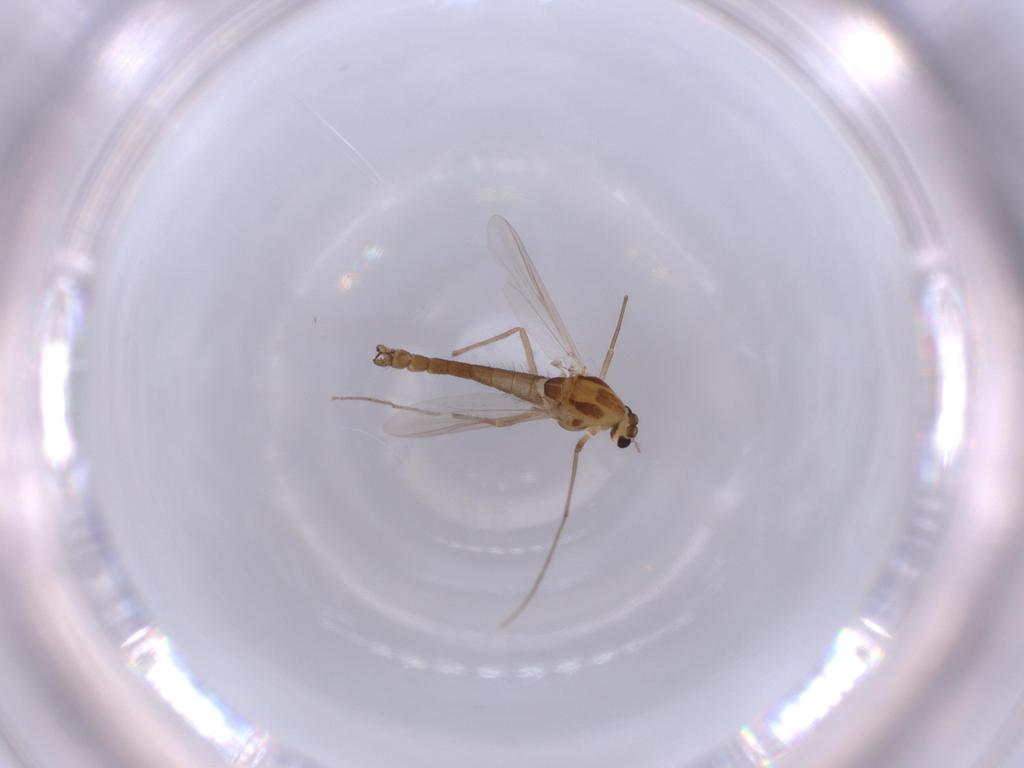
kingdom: Animalia
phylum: Arthropoda
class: Insecta
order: Diptera
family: Chironomidae
